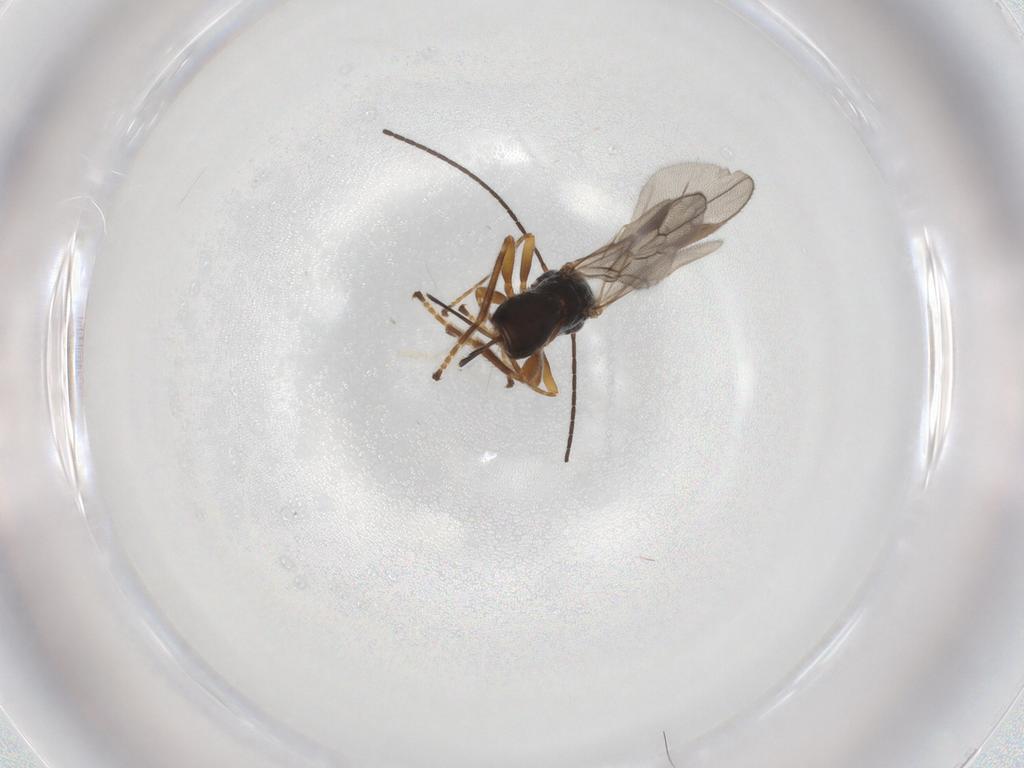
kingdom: Animalia
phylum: Arthropoda
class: Insecta
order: Hymenoptera
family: Braconidae
